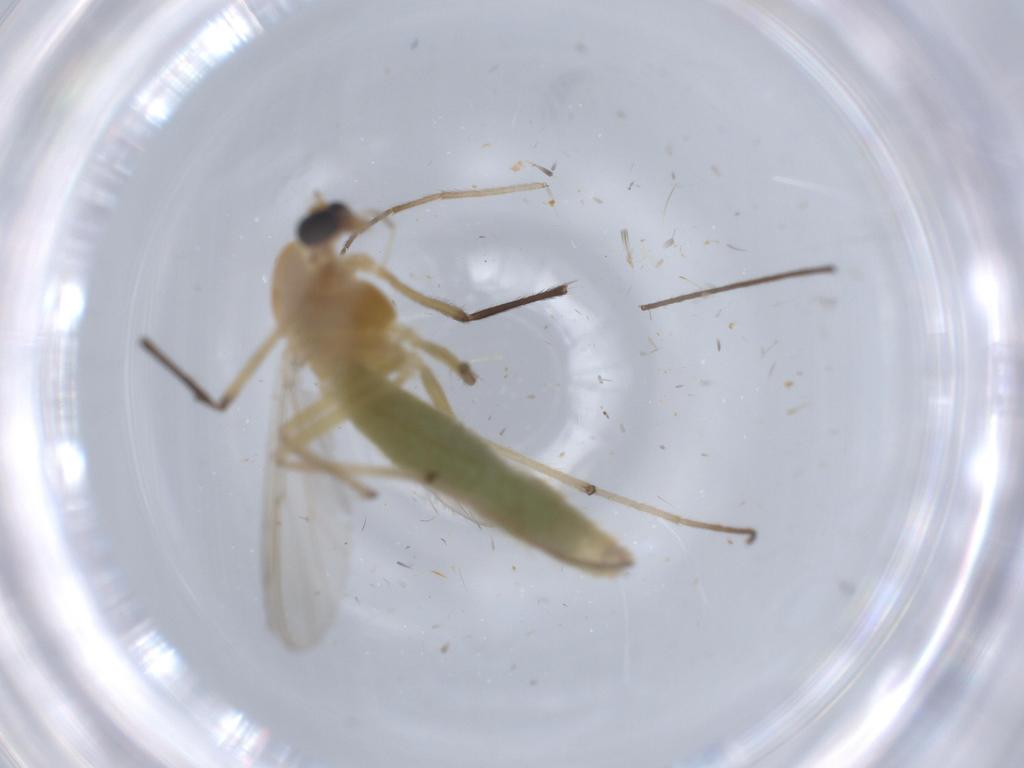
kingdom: Animalia
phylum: Arthropoda
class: Insecta
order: Diptera
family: Chironomidae
